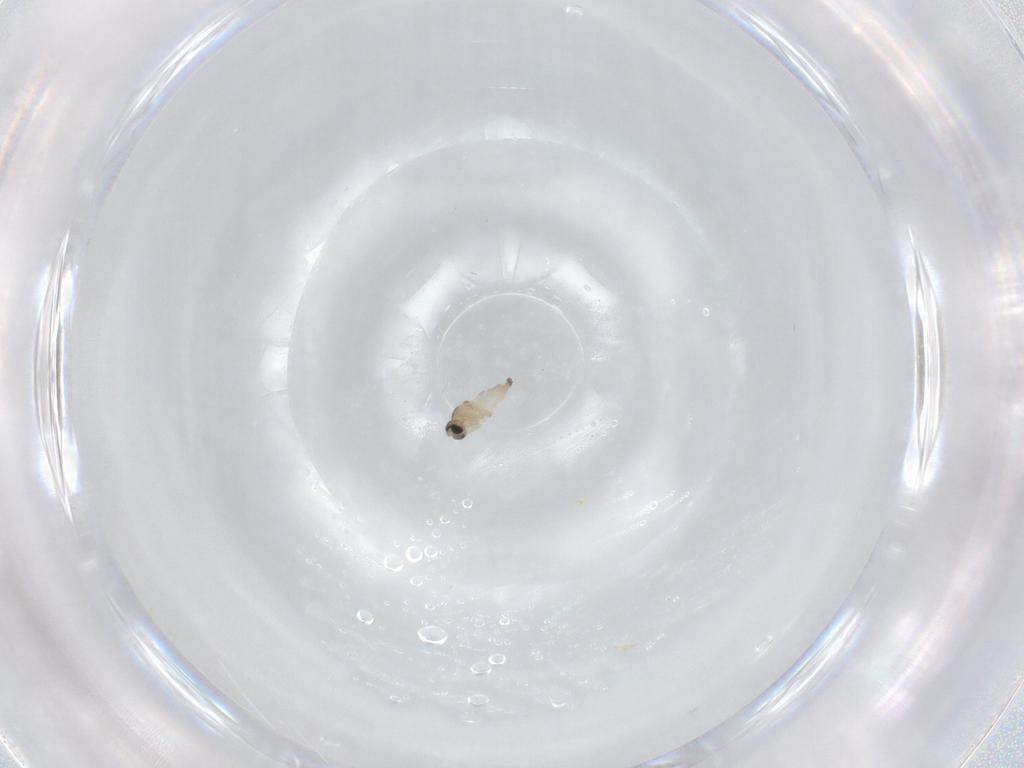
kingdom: Animalia
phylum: Arthropoda
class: Insecta
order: Diptera
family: Cecidomyiidae
